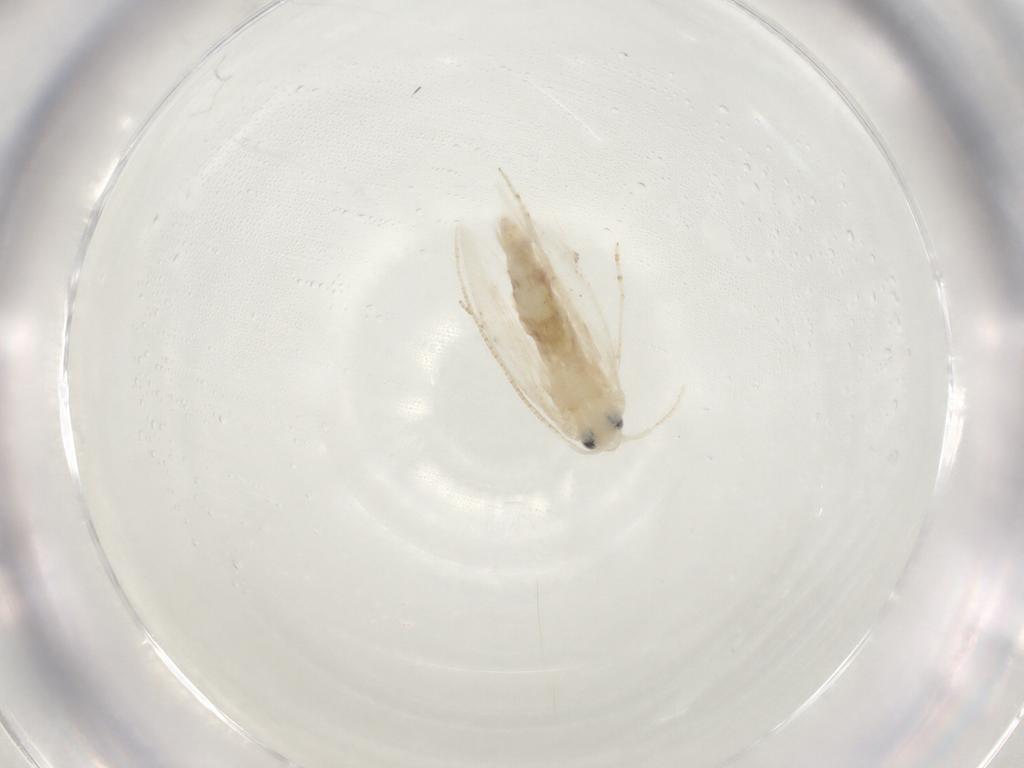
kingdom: Animalia
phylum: Arthropoda
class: Insecta
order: Lepidoptera
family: Lyonetiidae
